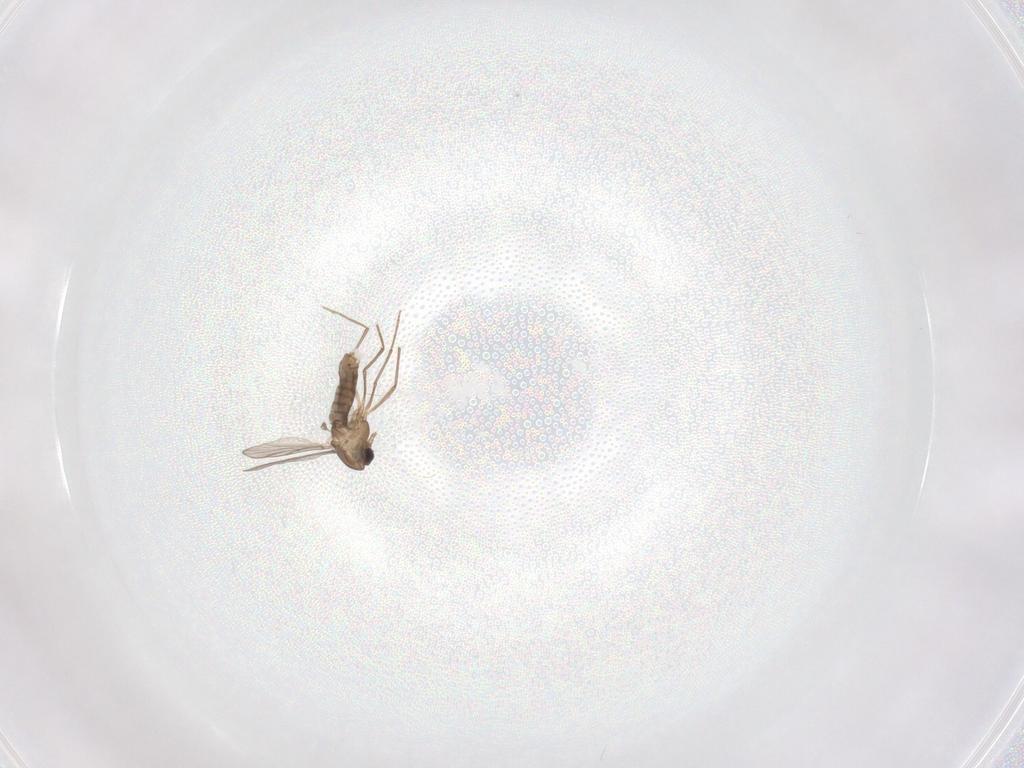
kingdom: Animalia
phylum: Arthropoda
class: Insecta
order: Diptera
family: Chironomidae
